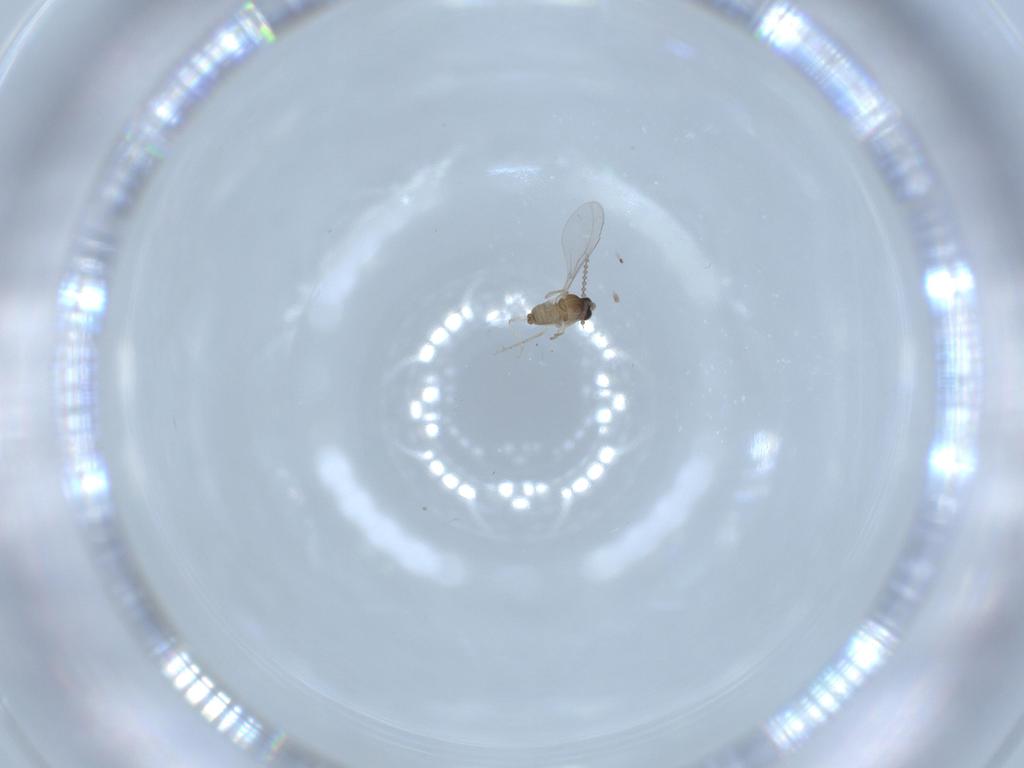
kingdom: Animalia
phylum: Arthropoda
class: Insecta
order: Diptera
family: Cecidomyiidae
